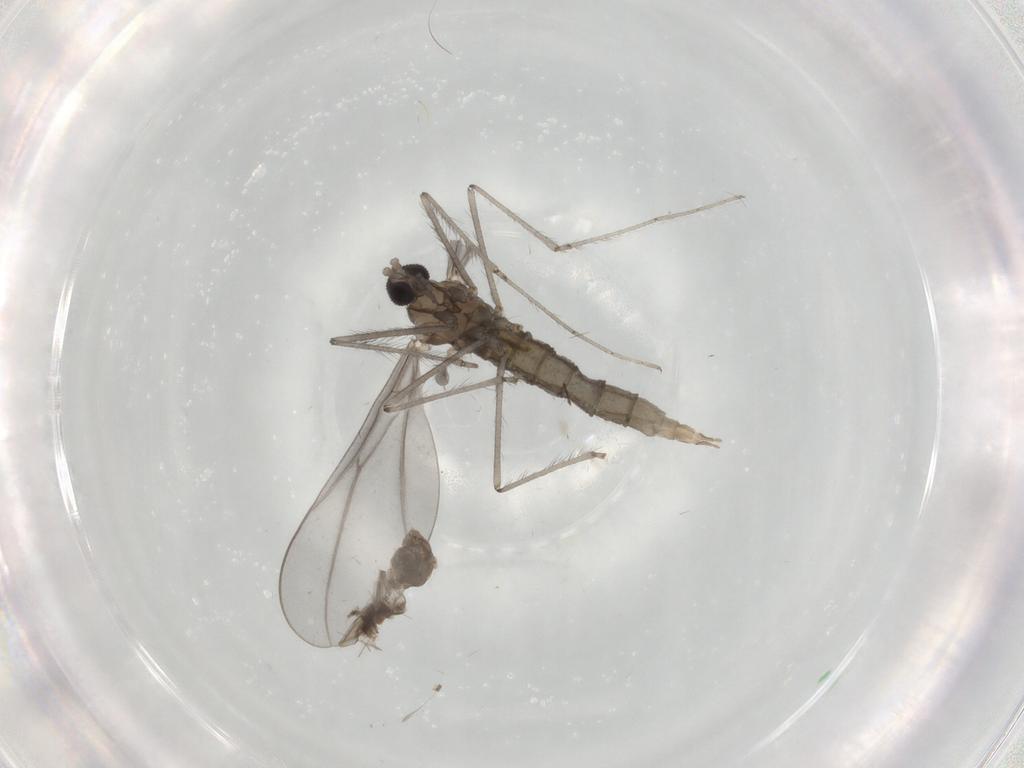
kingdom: Animalia
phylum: Arthropoda
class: Insecta
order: Diptera
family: Cecidomyiidae
